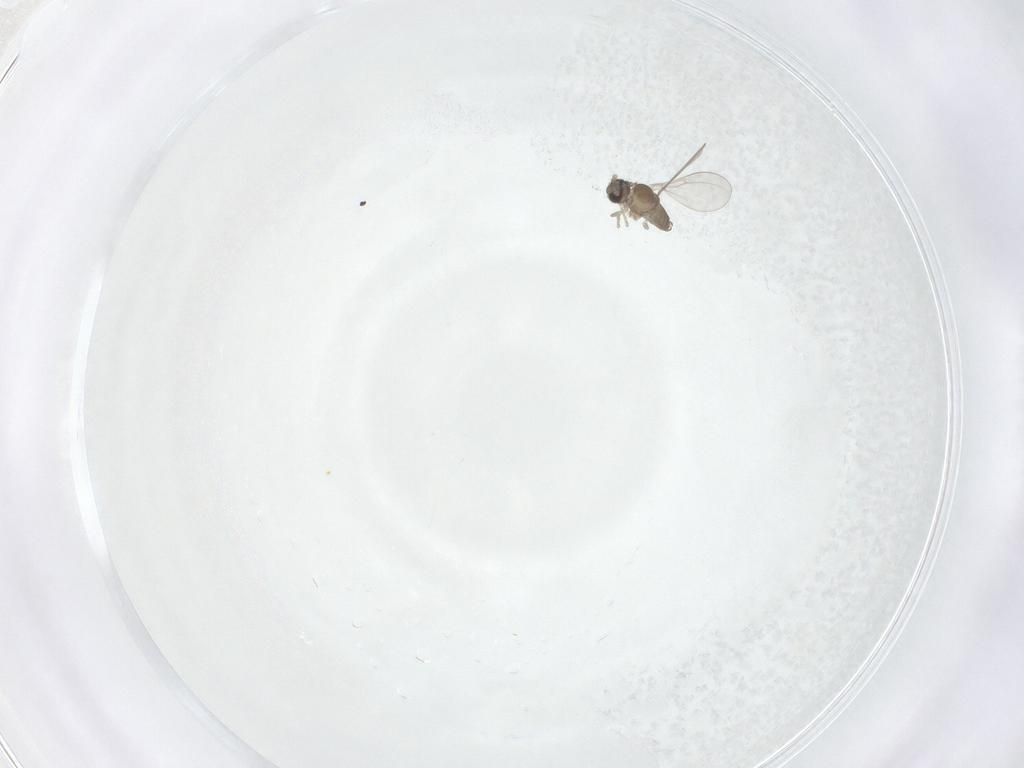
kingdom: Animalia
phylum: Arthropoda
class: Insecta
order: Diptera
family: Cecidomyiidae
